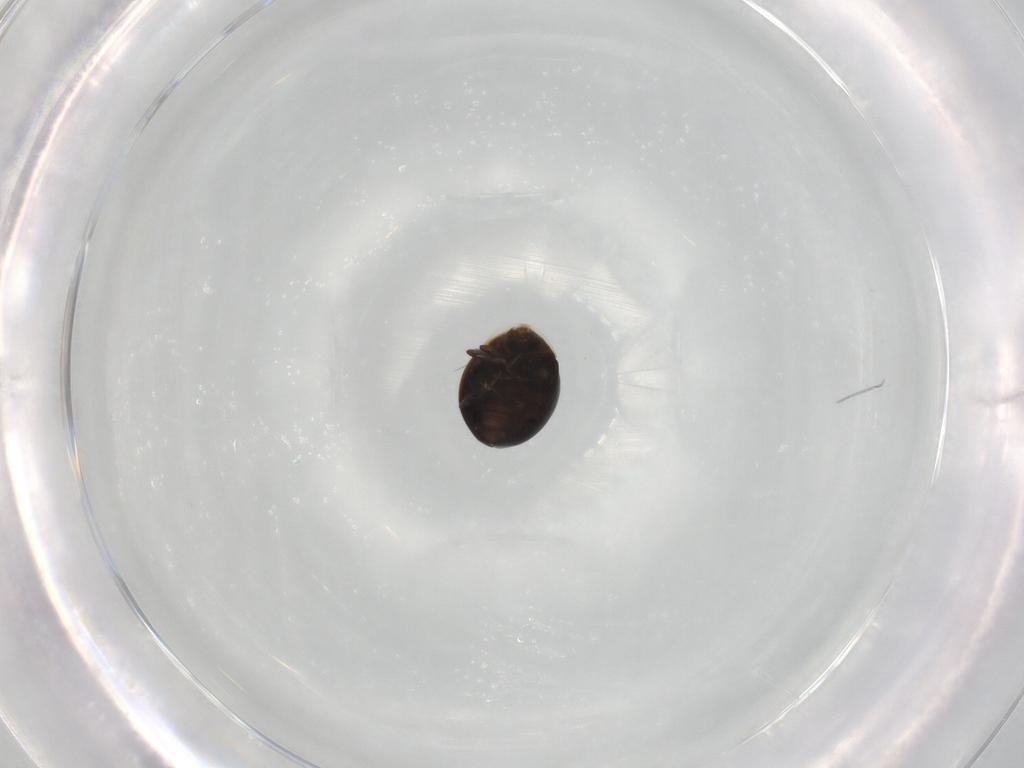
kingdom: Animalia
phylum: Arthropoda
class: Insecta
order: Coleoptera
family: Corylophidae
